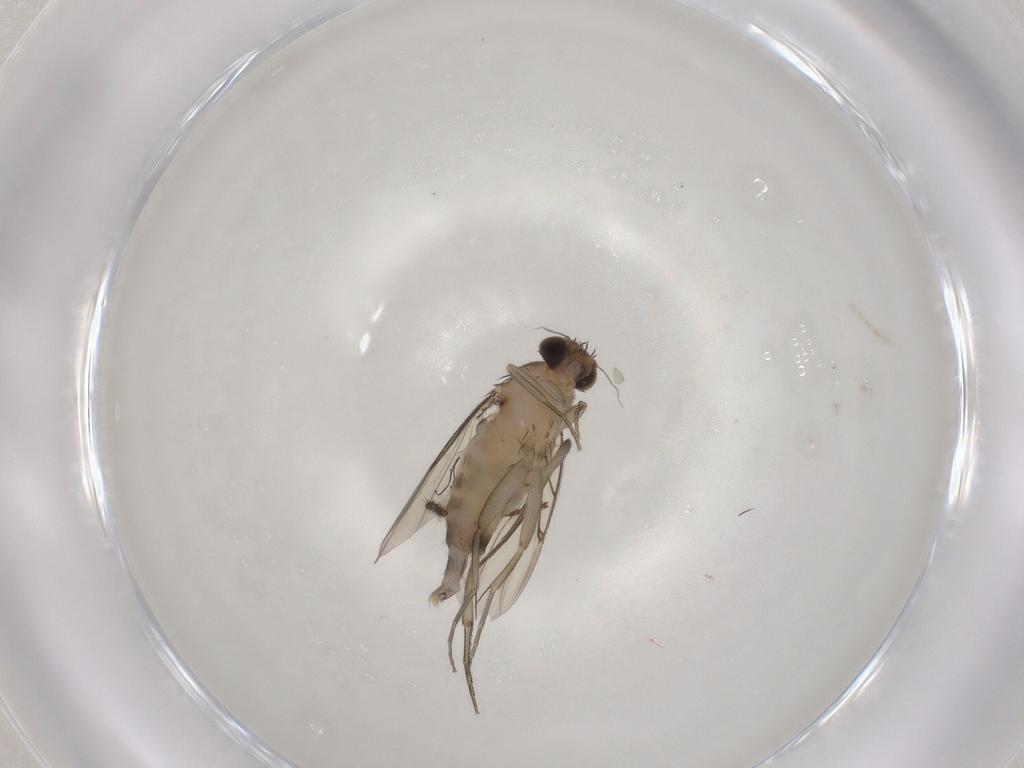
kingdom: Animalia
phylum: Arthropoda
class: Insecta
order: Diptera
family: Phoridae
